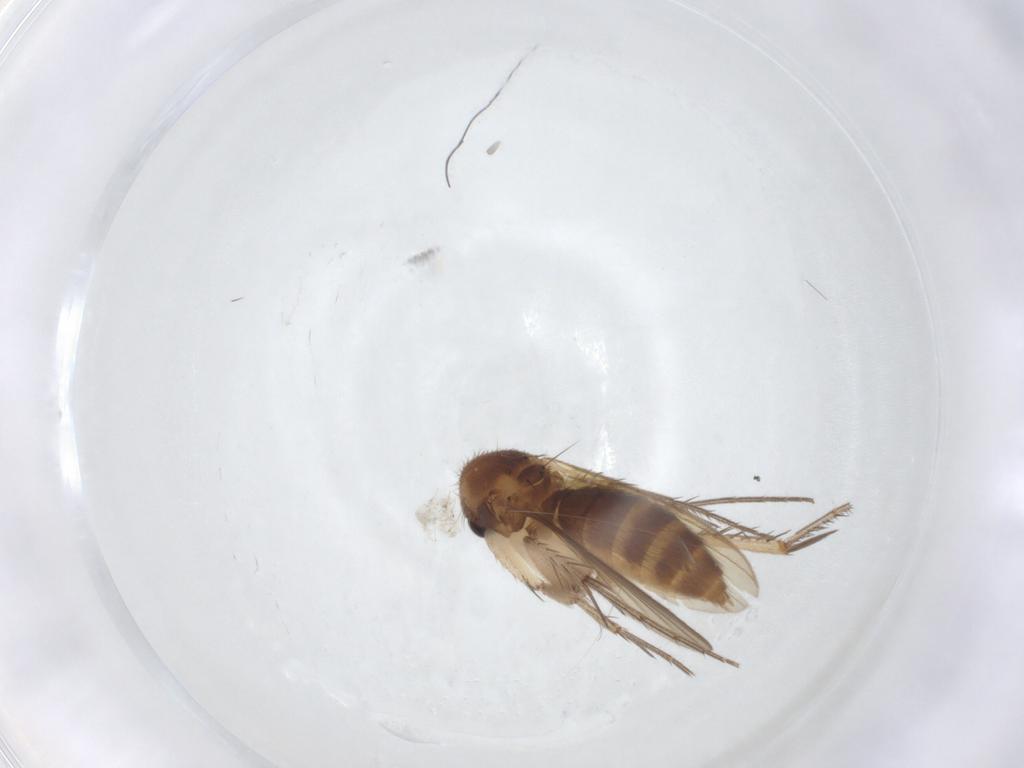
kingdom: Animalia
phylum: Arthropoda
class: Insecta
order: Diptera
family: Mycetophilidae
